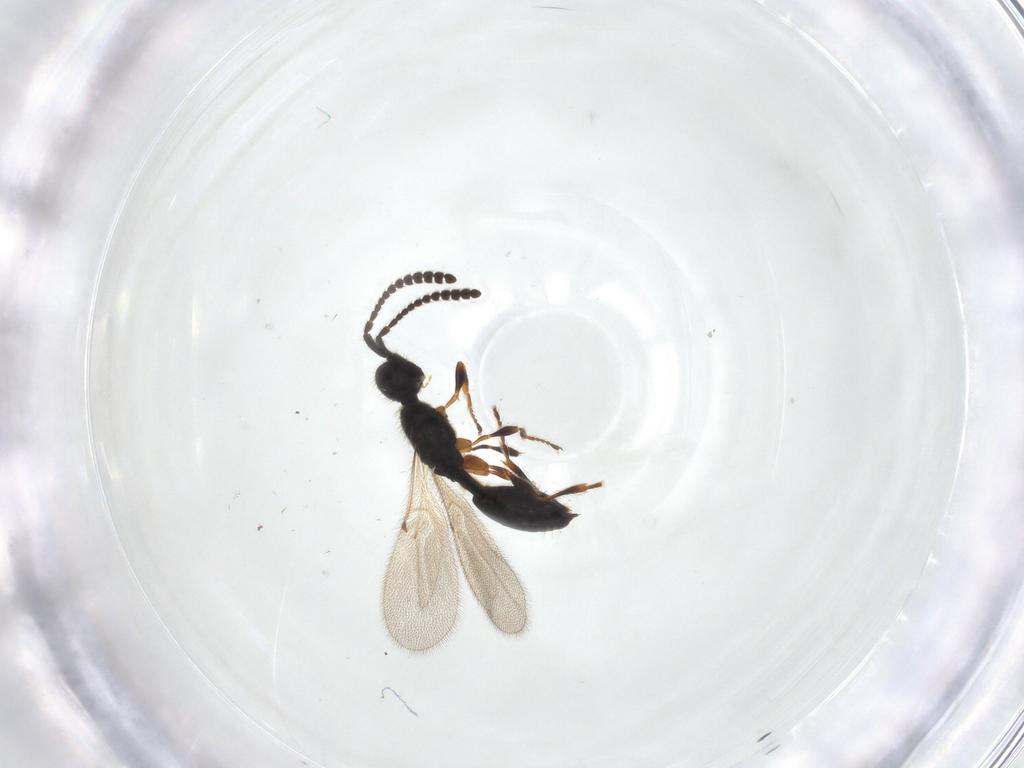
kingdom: Animalia
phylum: Arthropoda
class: Insecta
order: Hymenoptera
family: Diapriidae
